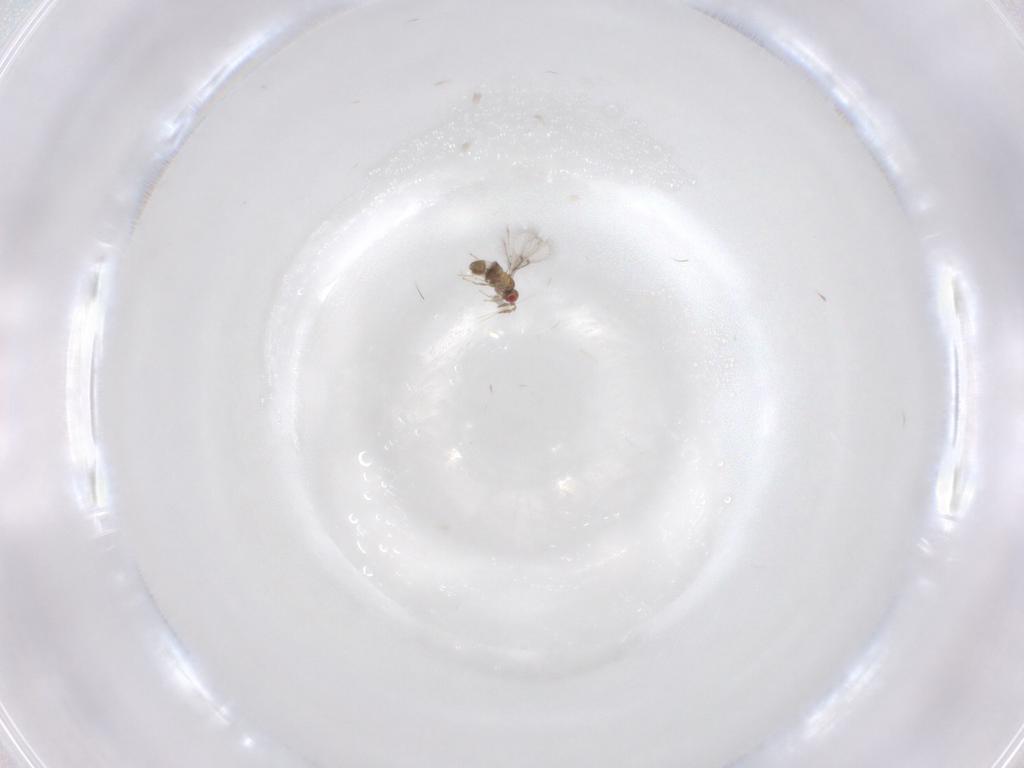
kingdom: Animalia
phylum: Arthropoda
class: Insecta
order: Hymenoptera
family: Trichogrammatidae
